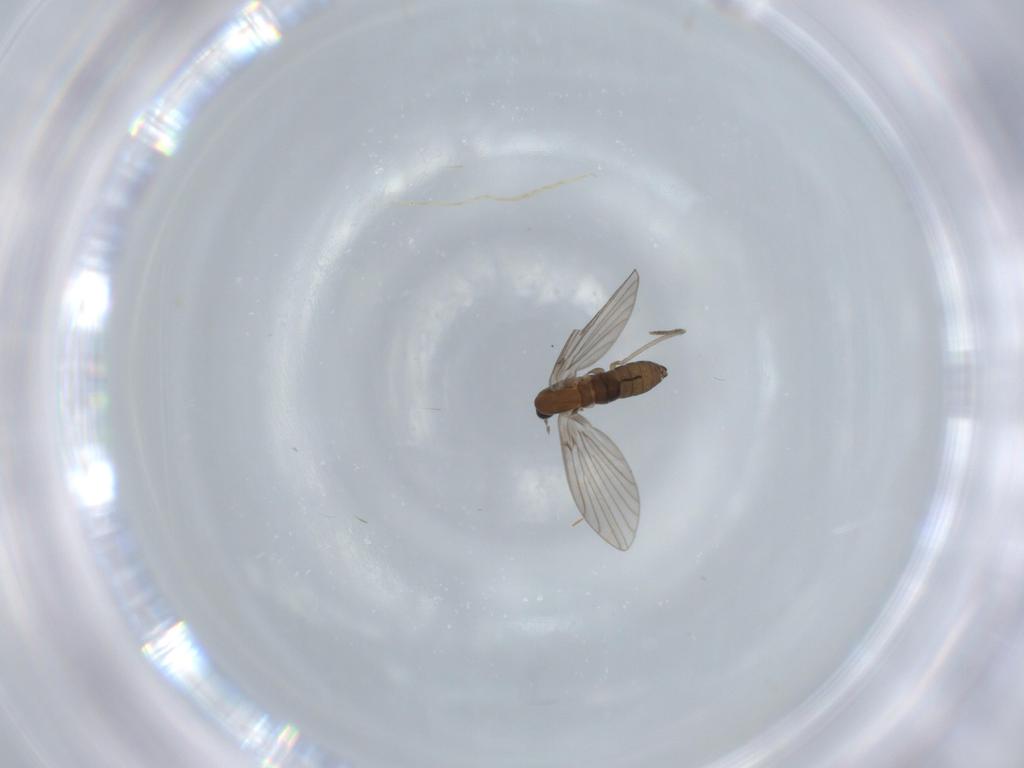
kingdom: Animalia
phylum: Arthropoda
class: Insecta
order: Diptera
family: Psychodidae
